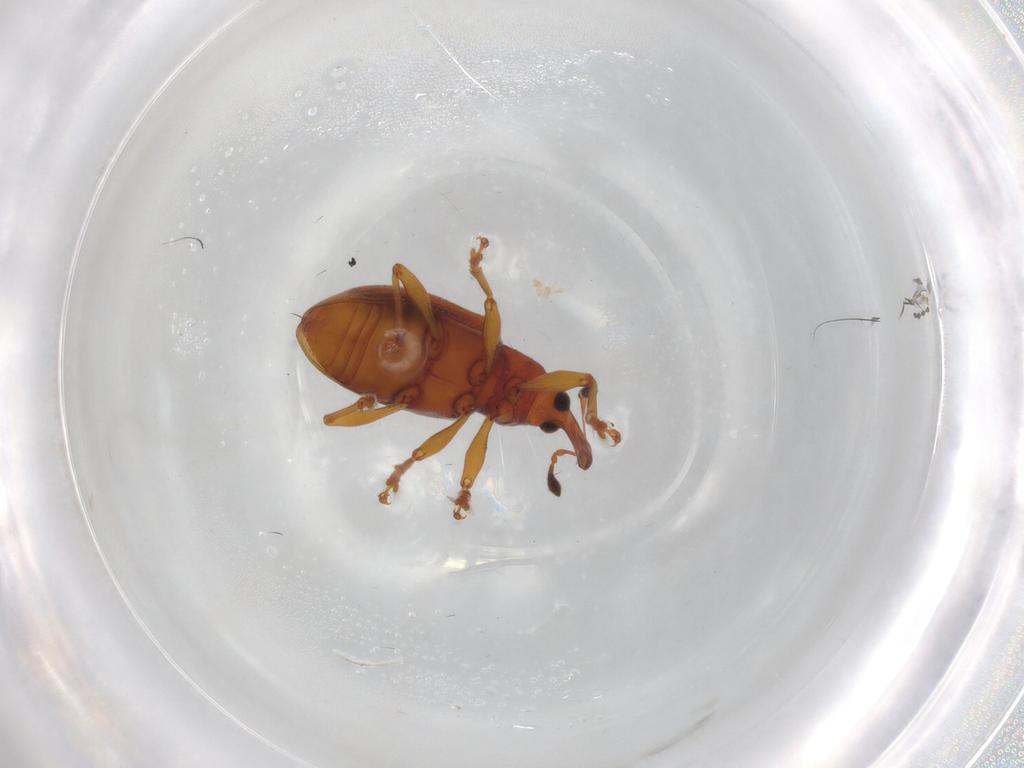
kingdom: Animalia
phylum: Arthropoda
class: Insecta
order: Coleoptera
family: Curculionidae
